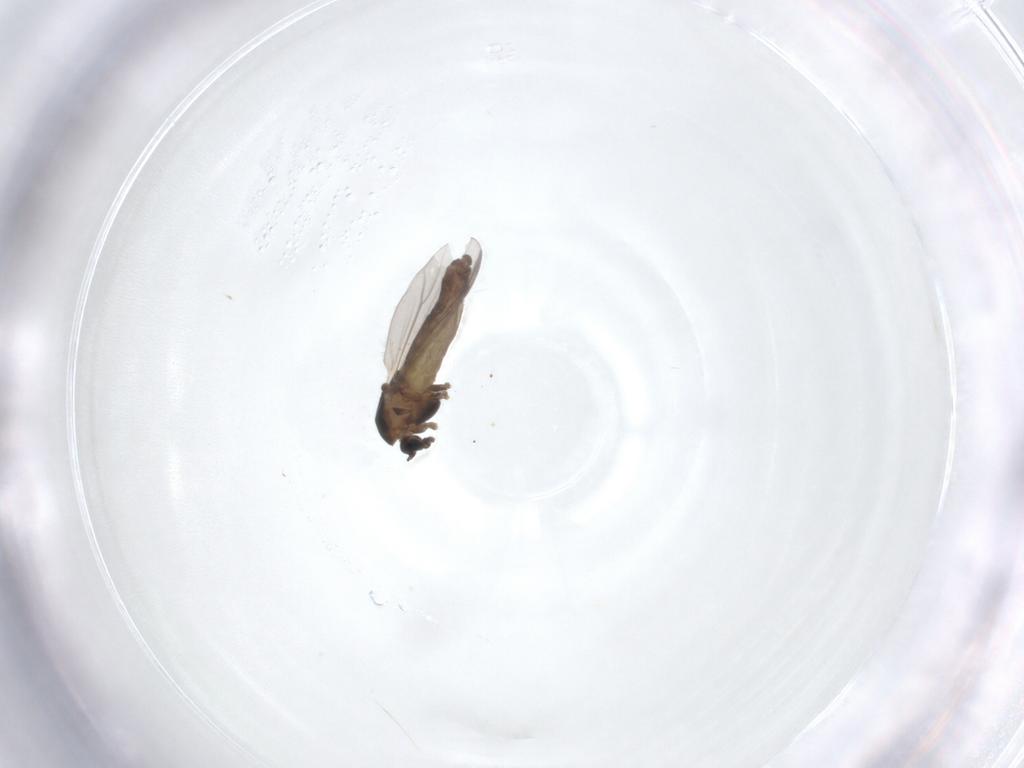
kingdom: Animalia
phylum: Arthropoda
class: Insecta
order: Diptera
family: Chironomidae
